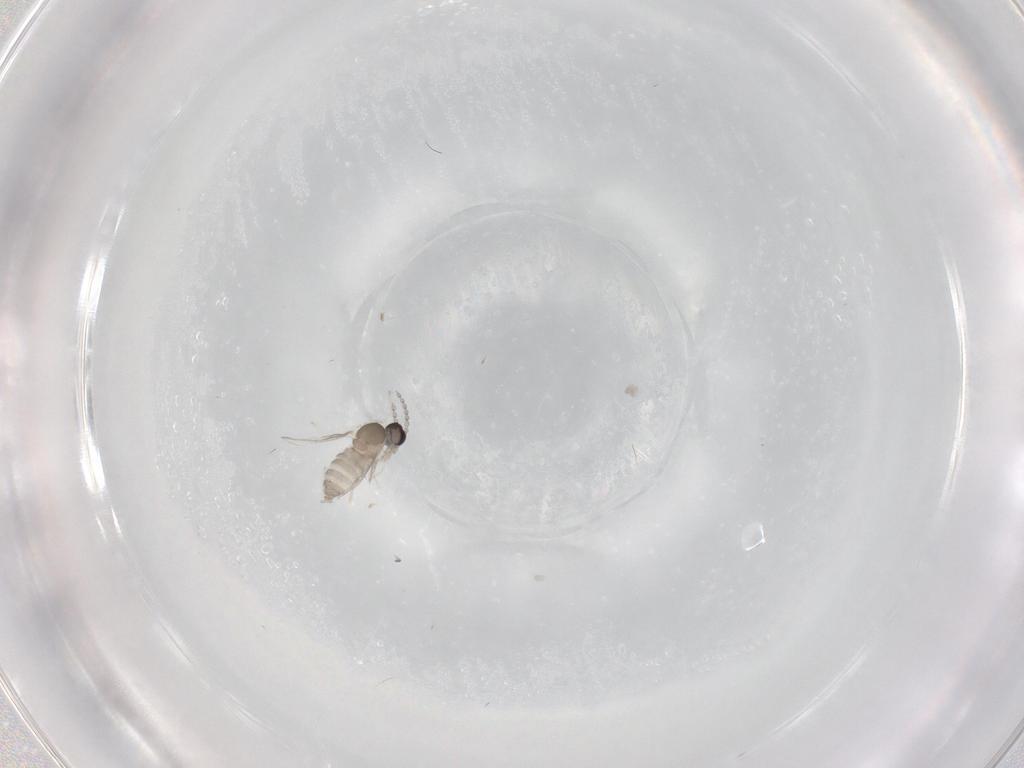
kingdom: Animalia
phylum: Arthropoda
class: Insecta
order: Diptera
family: Cecidomyiidae
